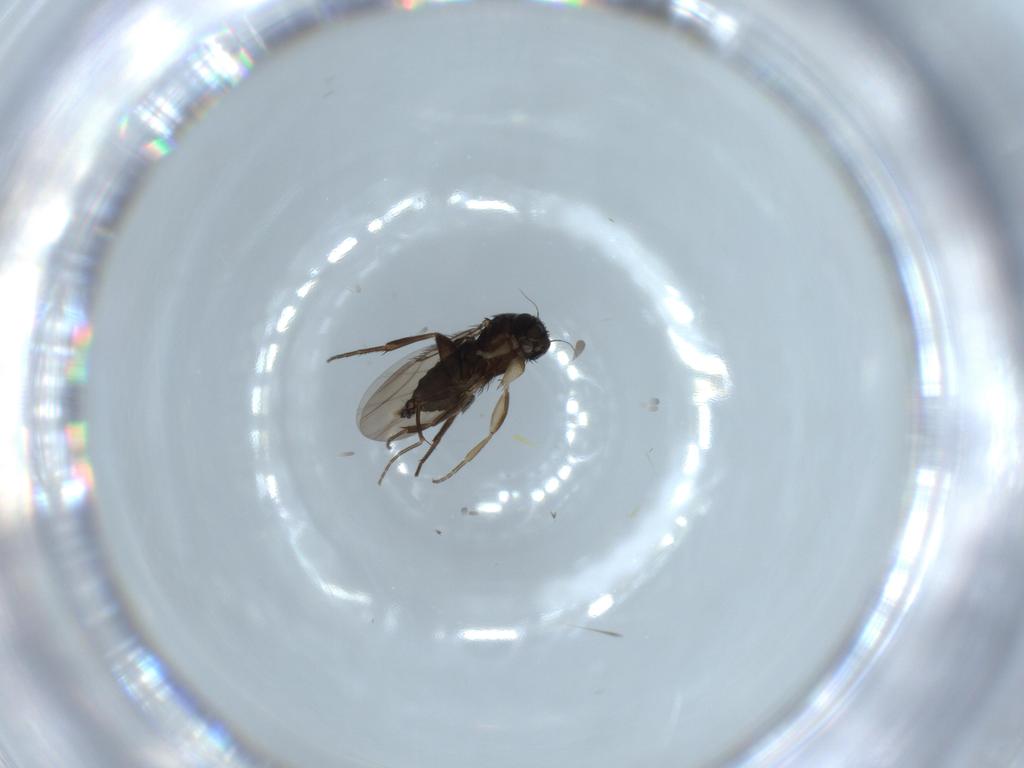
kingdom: Animalia
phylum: Arthropoda
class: Insecta
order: Diptera
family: Phoridae
